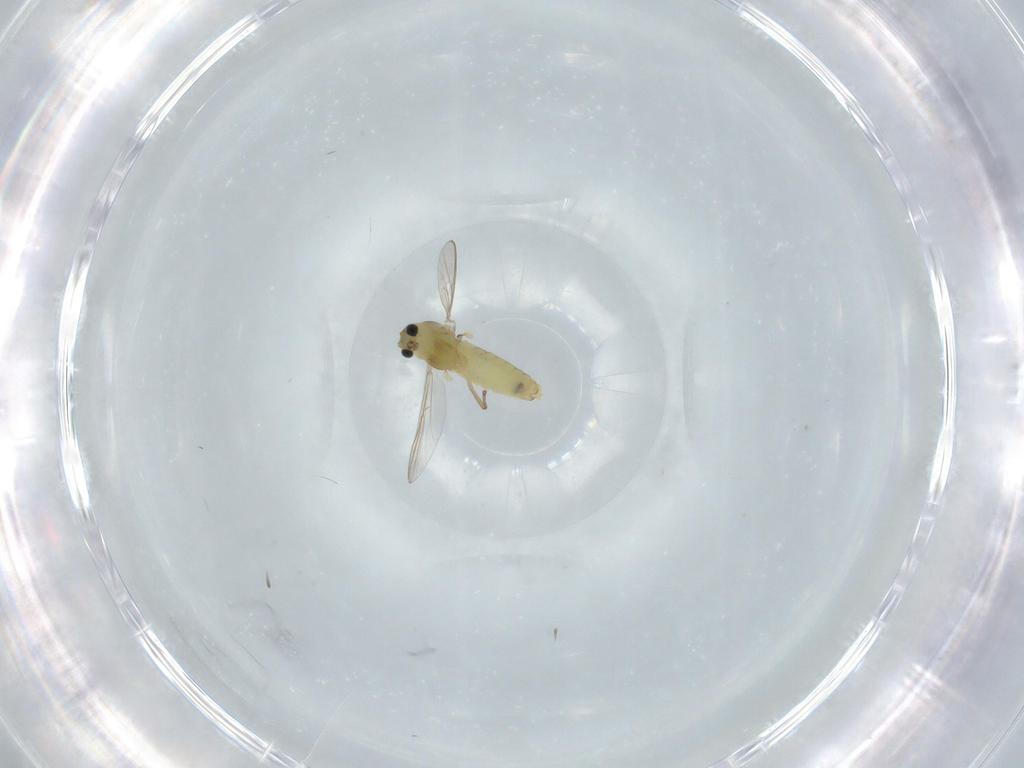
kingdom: Animalia
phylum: Arthropoda
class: Insecta
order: Diptera
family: Chironomidae
